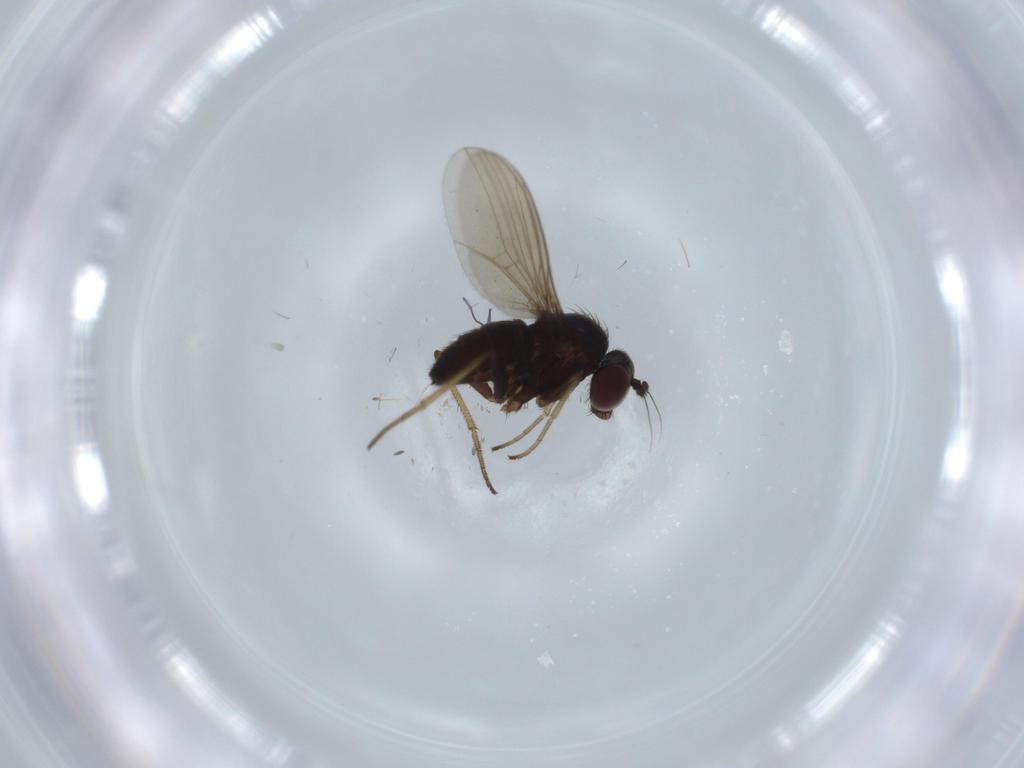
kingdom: Animalia
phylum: Arthropoda
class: Insecta
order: Diptera
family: Dolichopodidae
